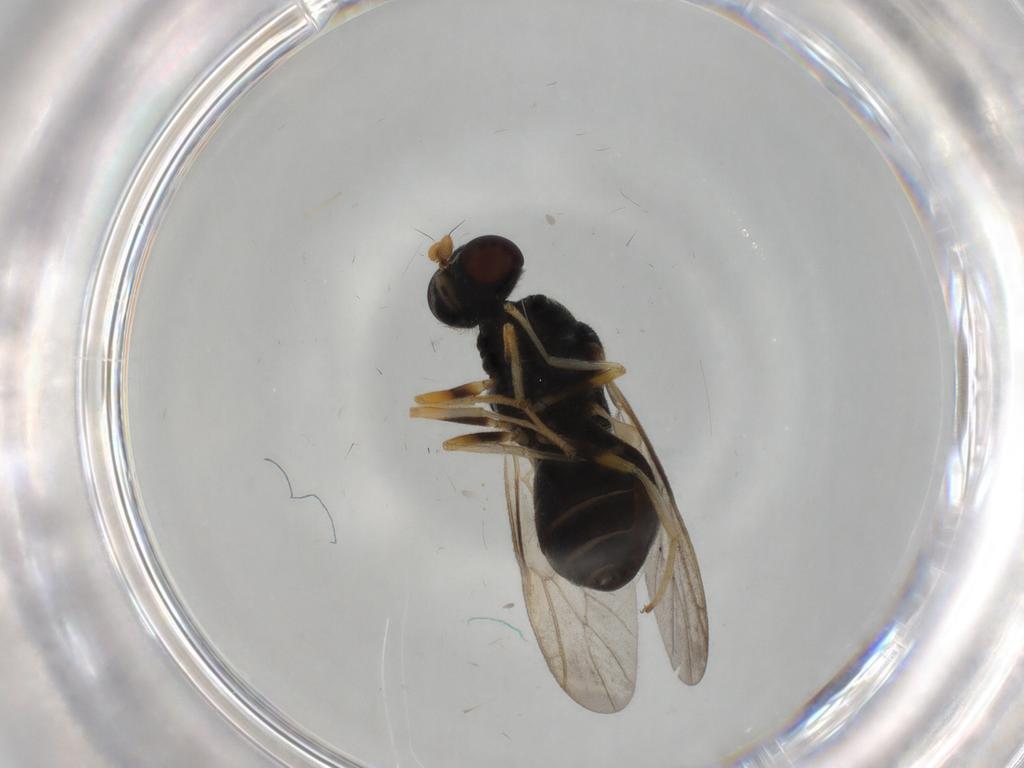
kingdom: Animalia
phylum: Arthropoda
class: Insecta
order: Diptera
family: Stratiomyidae
